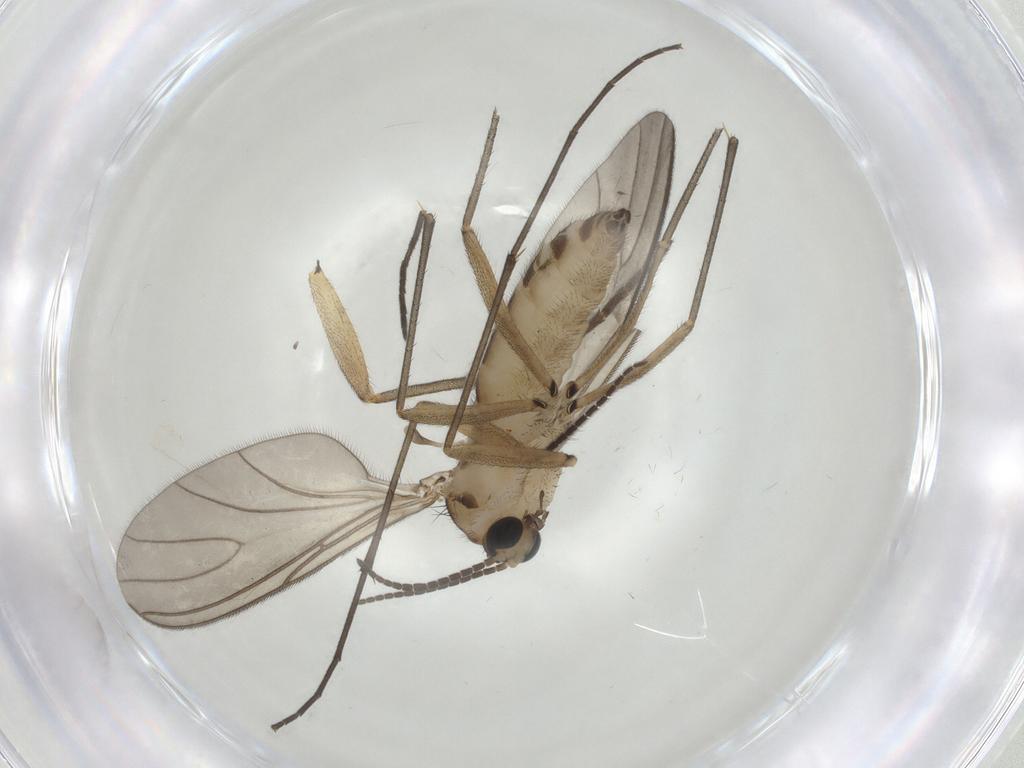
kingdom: Animalia
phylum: Arthropoda
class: Insecta
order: Diptera
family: Sciaridae
